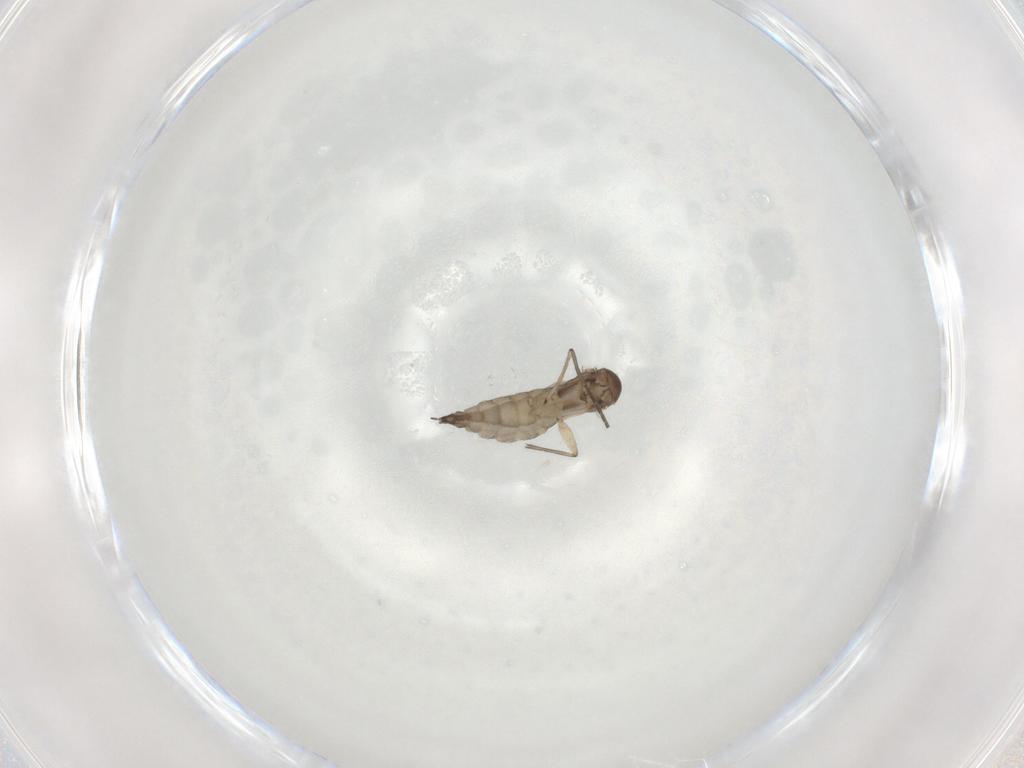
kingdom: Animalia
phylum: Arthropoda
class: Insecta
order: Diptera
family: Sciaridae
